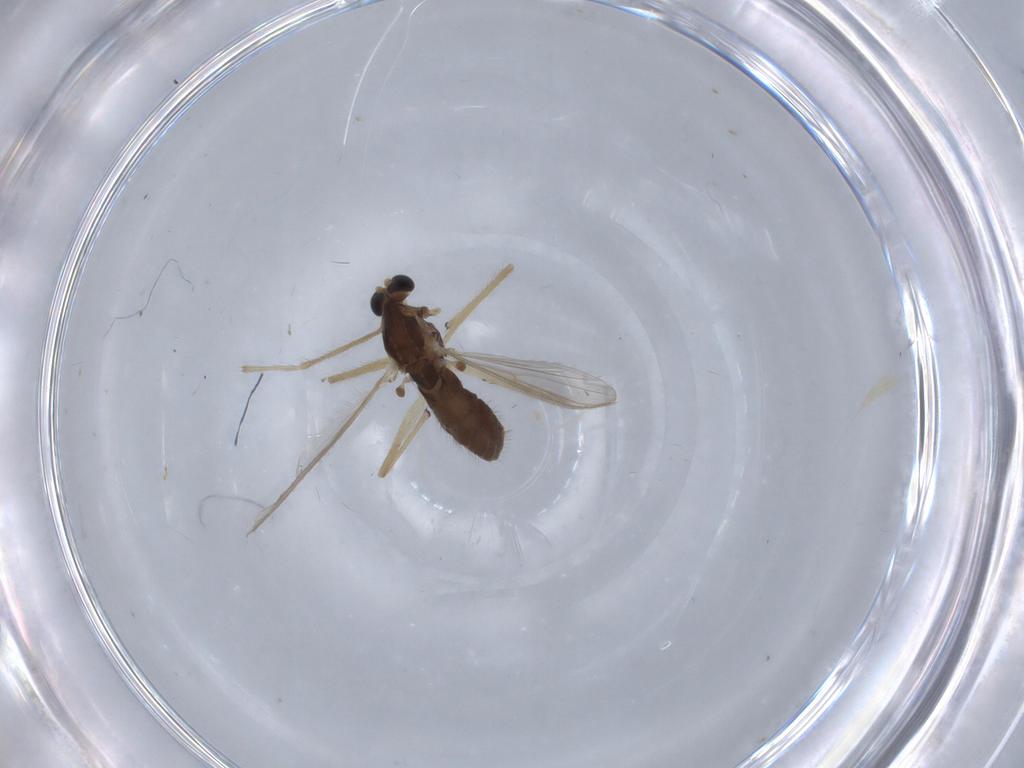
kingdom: Animalia
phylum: Arthropoda
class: Insecta
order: Diptera
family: Chironomidae
